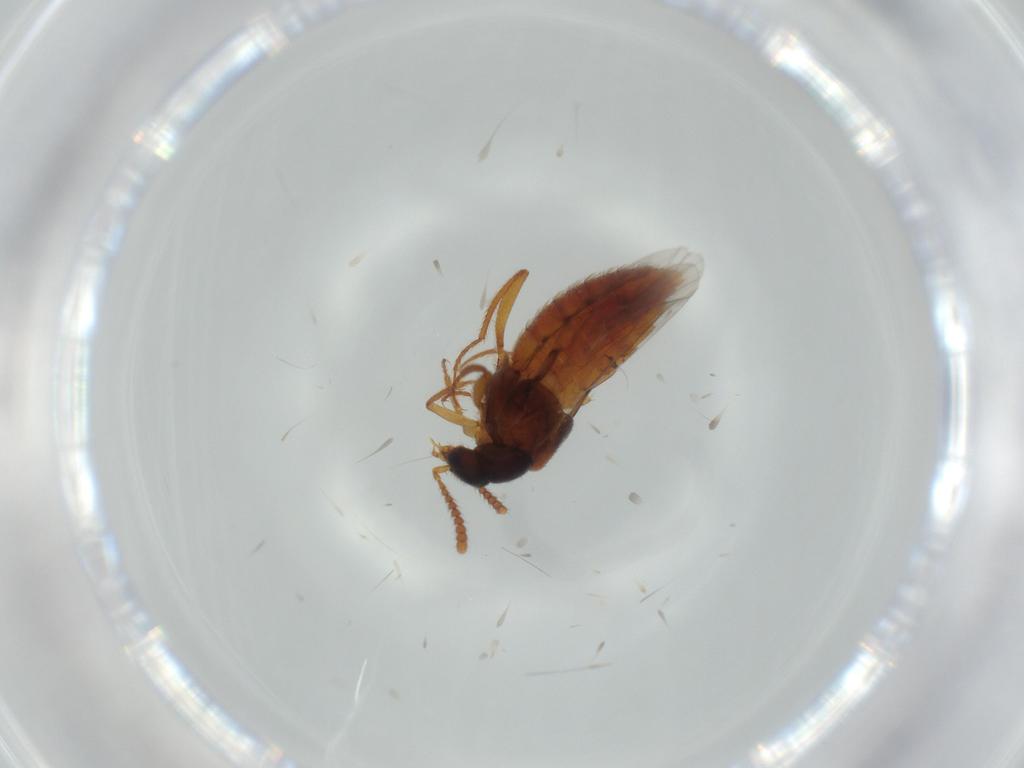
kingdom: Animalia
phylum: Arthropoda
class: Insecta
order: Coleoptera
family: Staphylinidae
